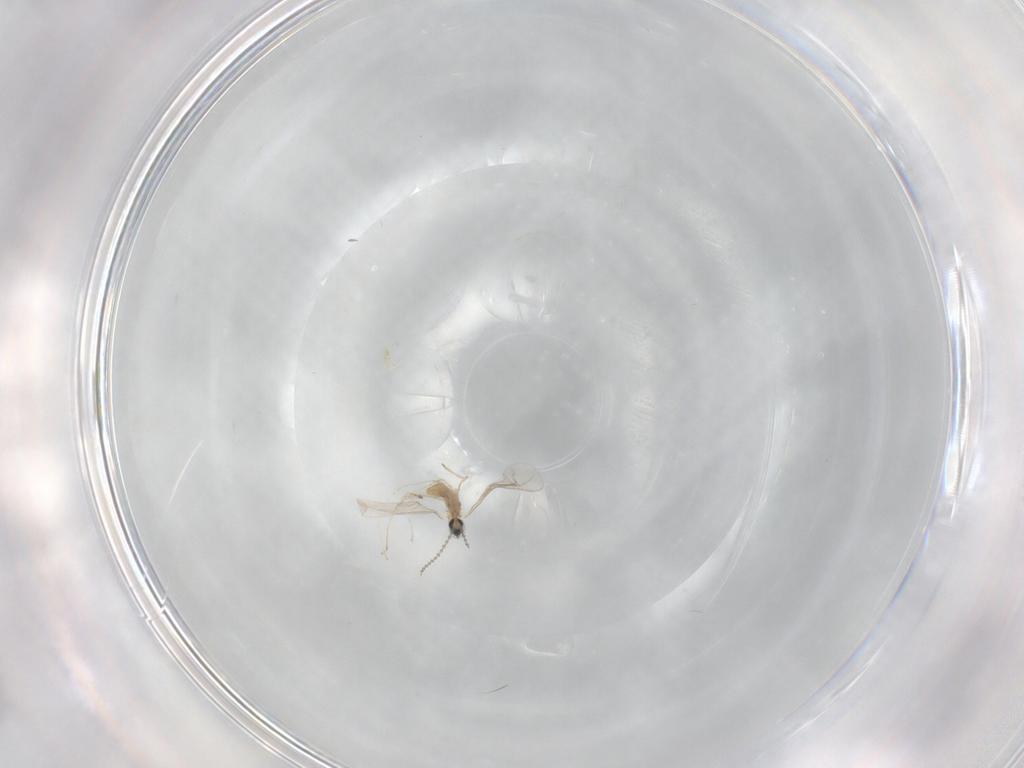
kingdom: Animalia
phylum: Arthropoda
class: Insecta
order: Diptera
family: Cecidomyiidae
